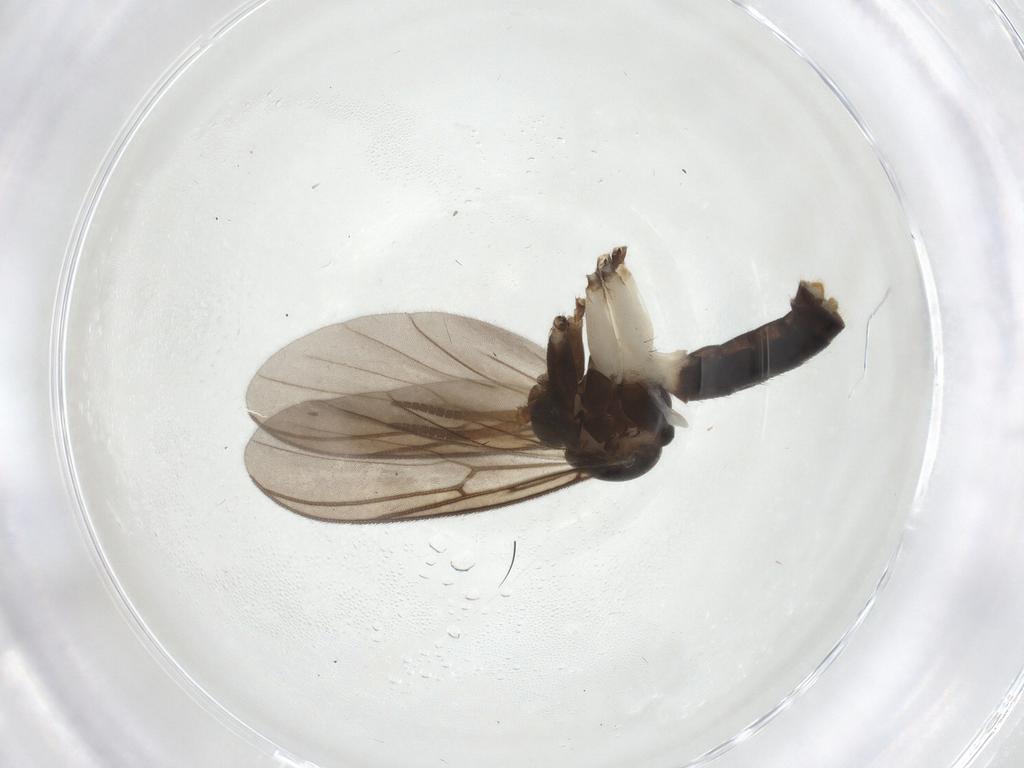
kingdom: Animalia
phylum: Arthropoda
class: Insecta
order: Diptera
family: Mycetophilidae
